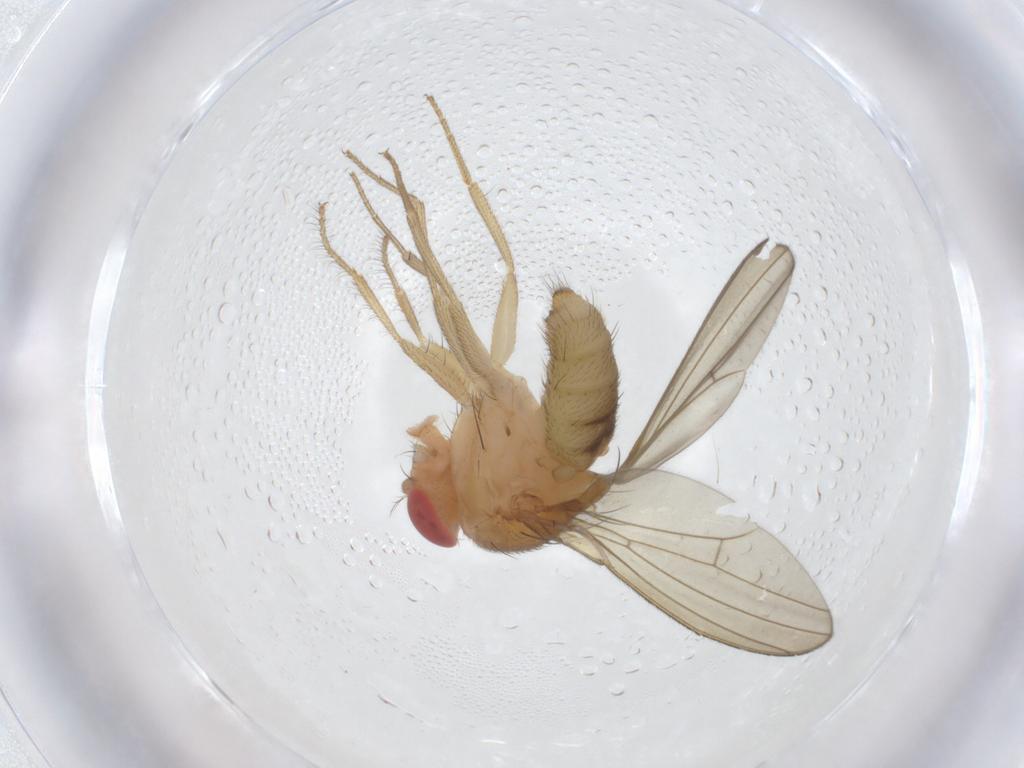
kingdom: Animalia
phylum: Arthropoda
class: Insecta
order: Diptera
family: Drosophilidae
